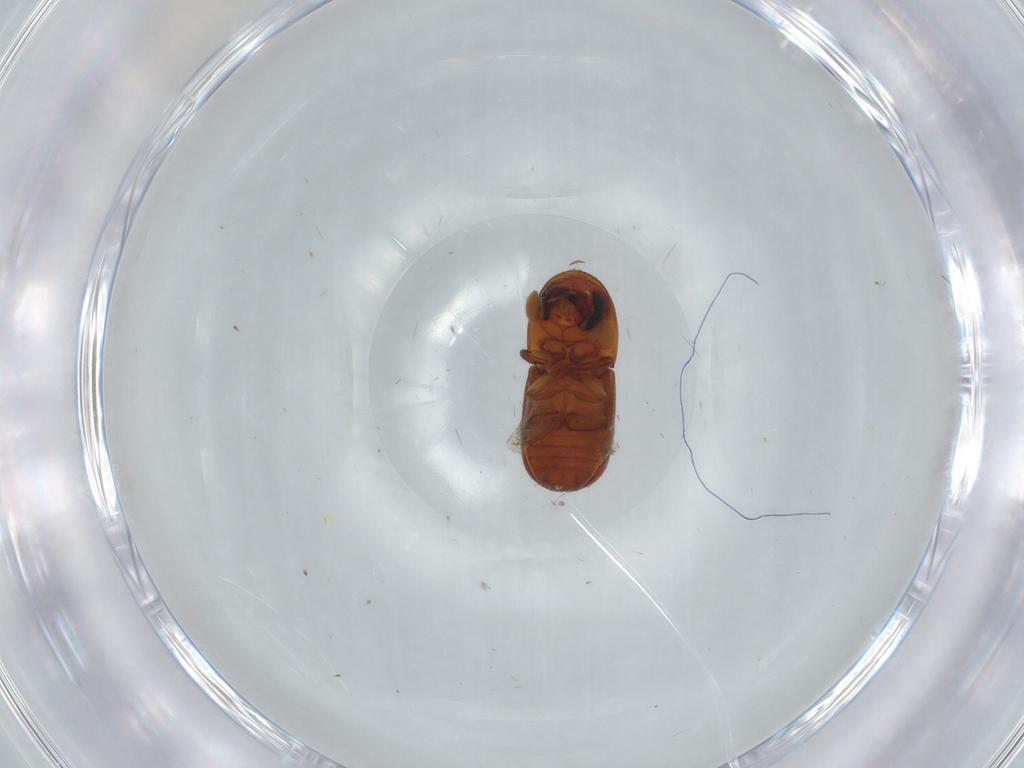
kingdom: Animalia
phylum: Arthropoda
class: Insecta
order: Coleoptera
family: Curculionidae
